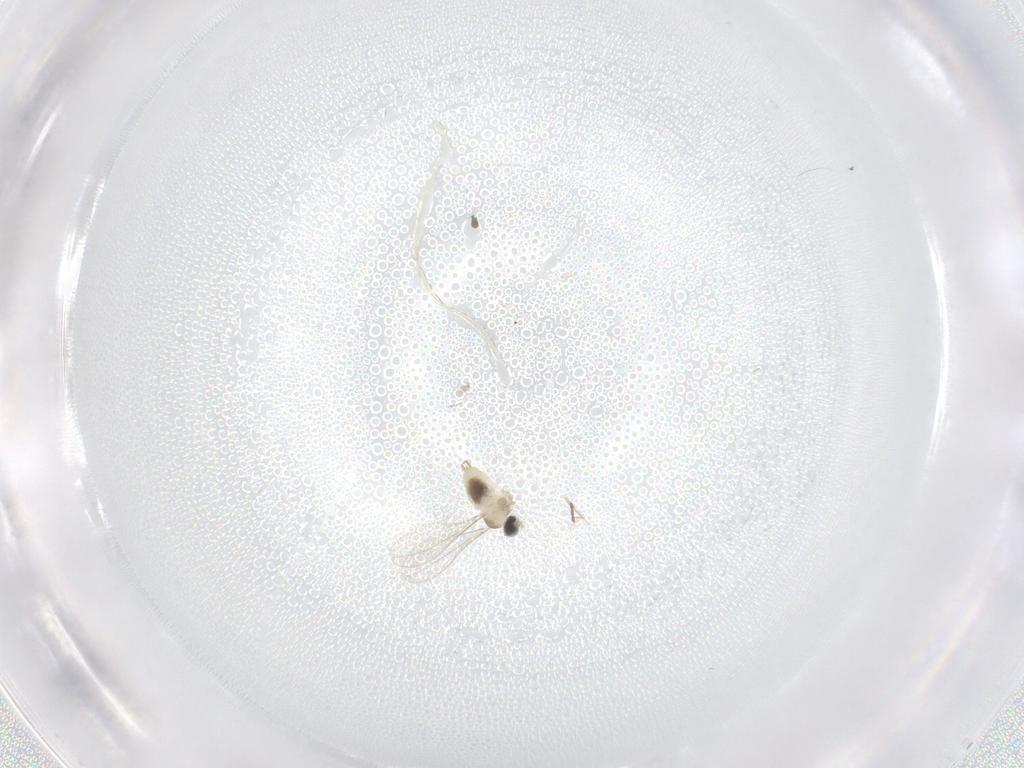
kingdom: Animalia
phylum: Arthropoda
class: Insecta
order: Diptera
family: Cecidomyiidae
